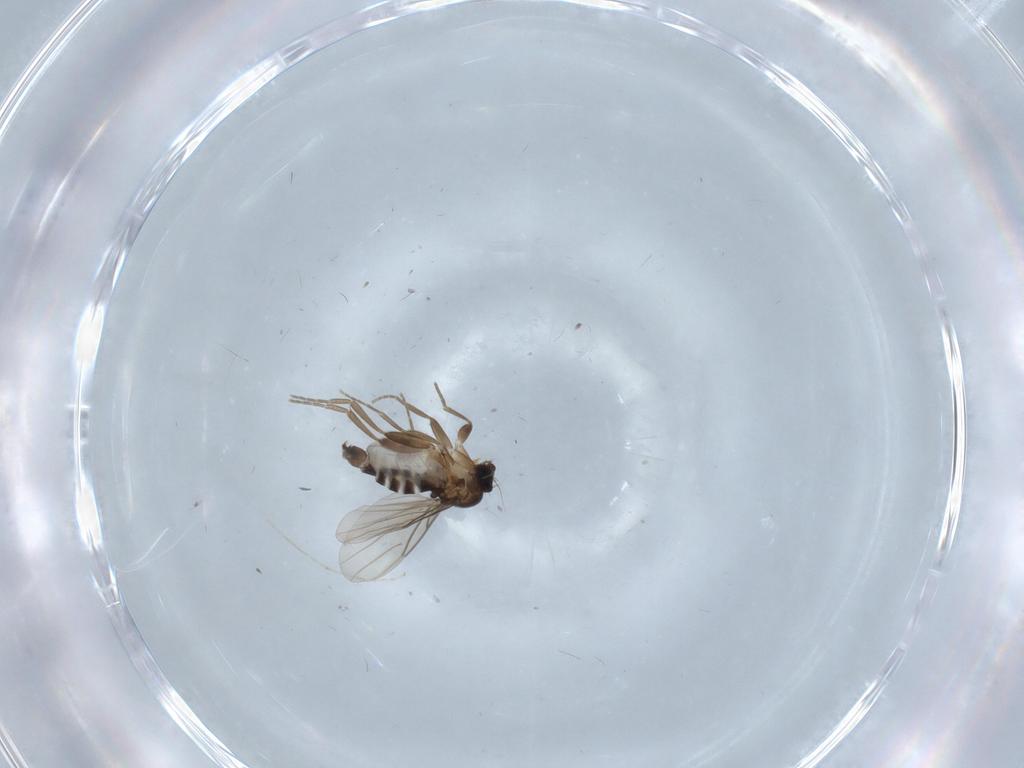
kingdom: Animalia
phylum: Arthropoda
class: Insecta
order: Diptera
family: Phoridae
